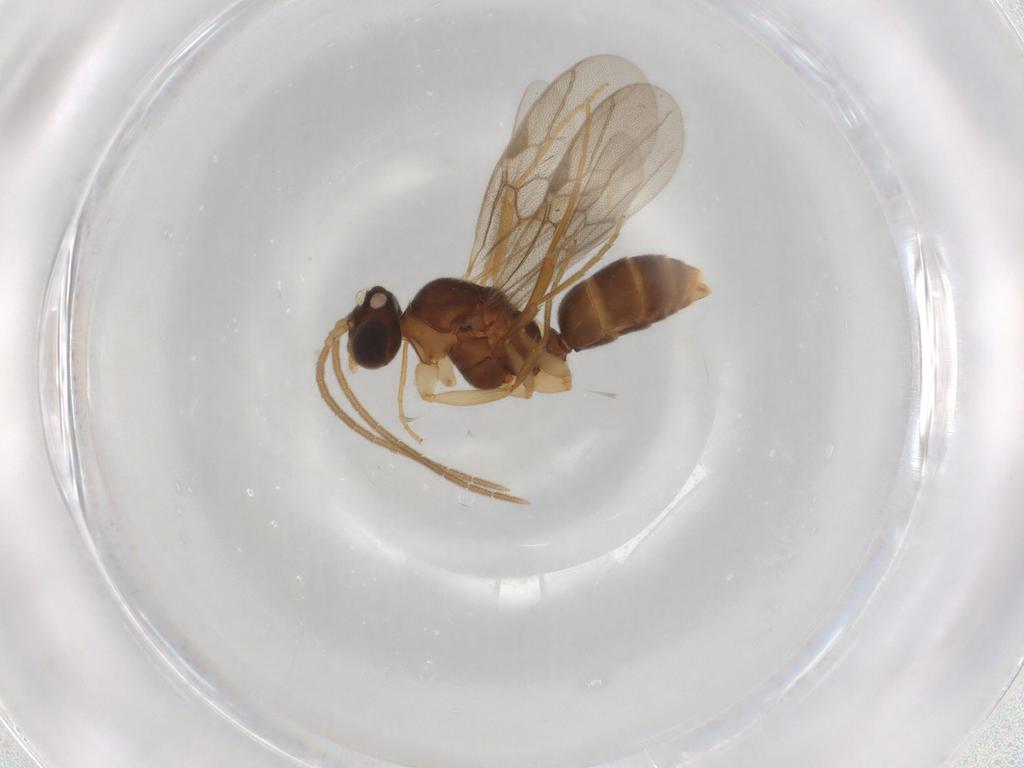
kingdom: Animalia
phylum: Arthropoda
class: Insecta
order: Hymenoptera
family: Formicidae
